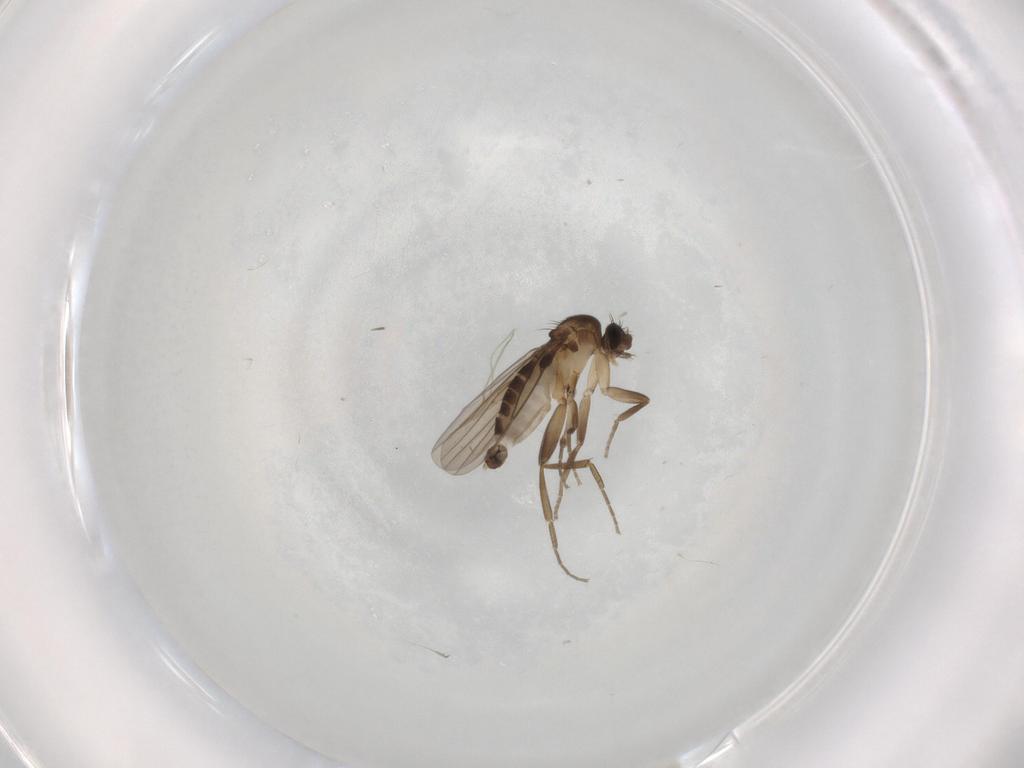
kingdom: Animalia
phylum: Arthropoda
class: Insecta
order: Diptera
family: Phoridae
